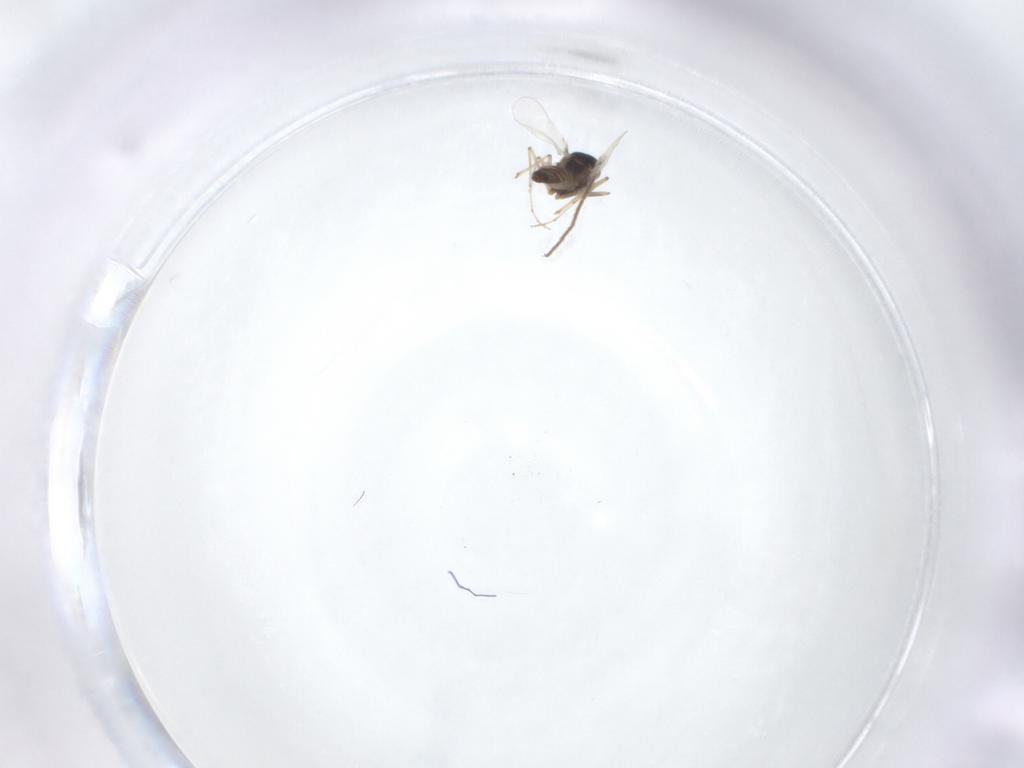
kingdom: Animalia
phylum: Arthropoda
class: Insecta
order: Diptera
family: Chironomidae
